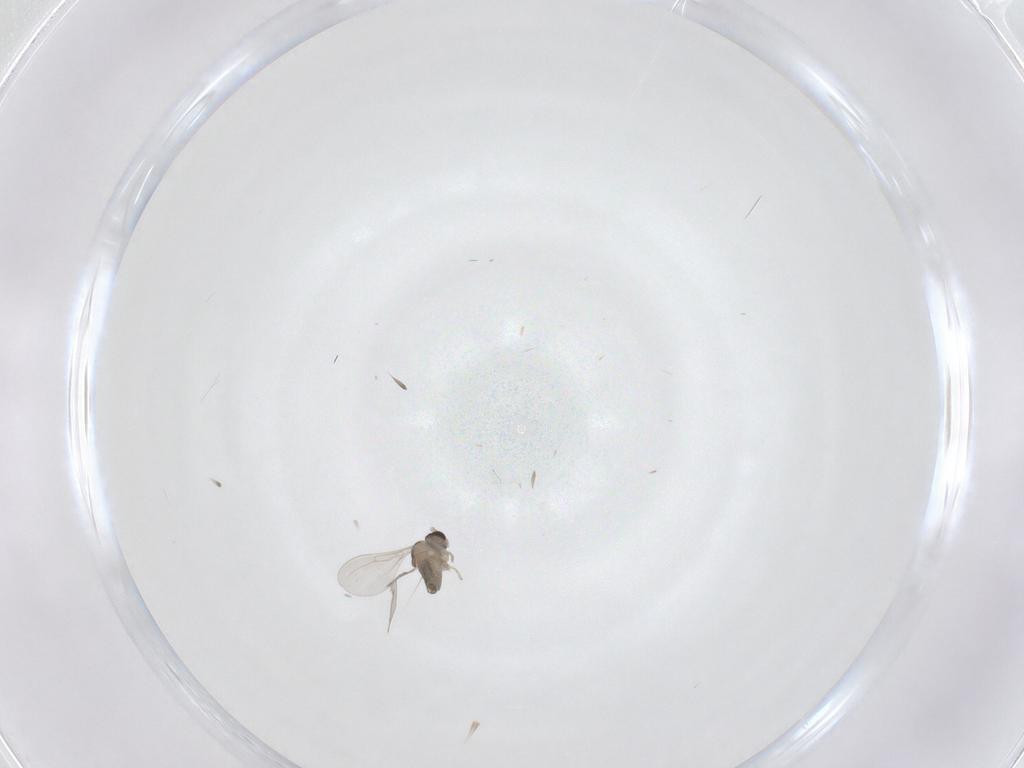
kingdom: Animalia
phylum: Arthropoda
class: Insecta
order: Diptera
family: Cecidomyiidae
